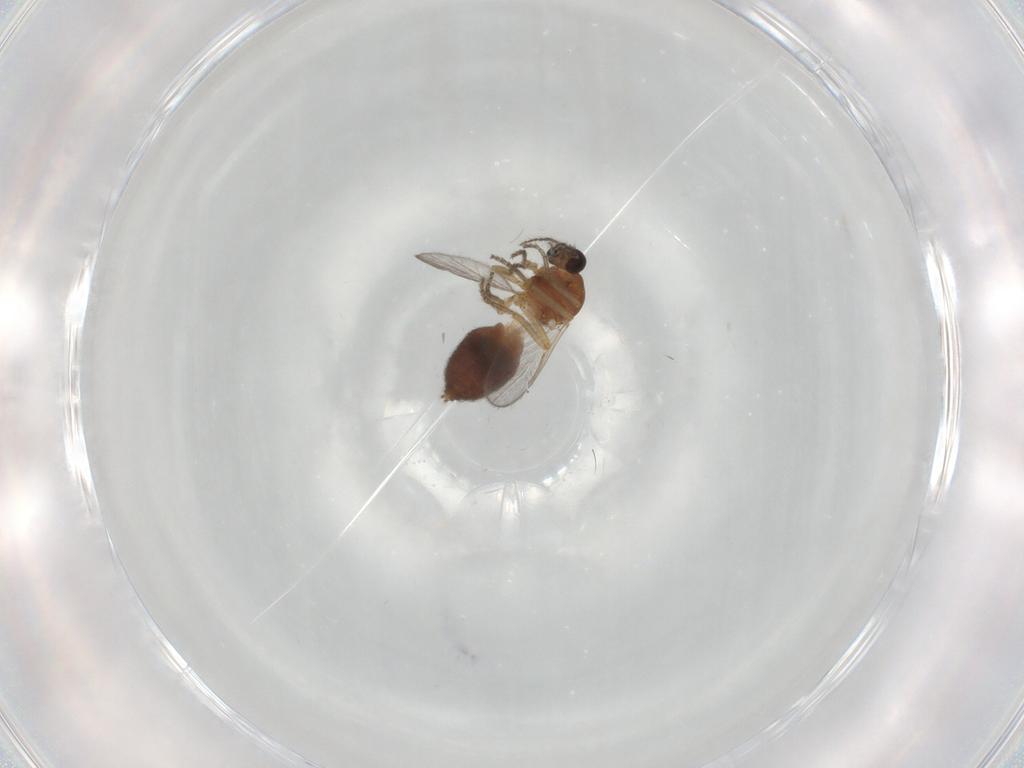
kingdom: Animalia
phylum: Arthropoda
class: Insecta
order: Diptera
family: Ceratopogonidae
